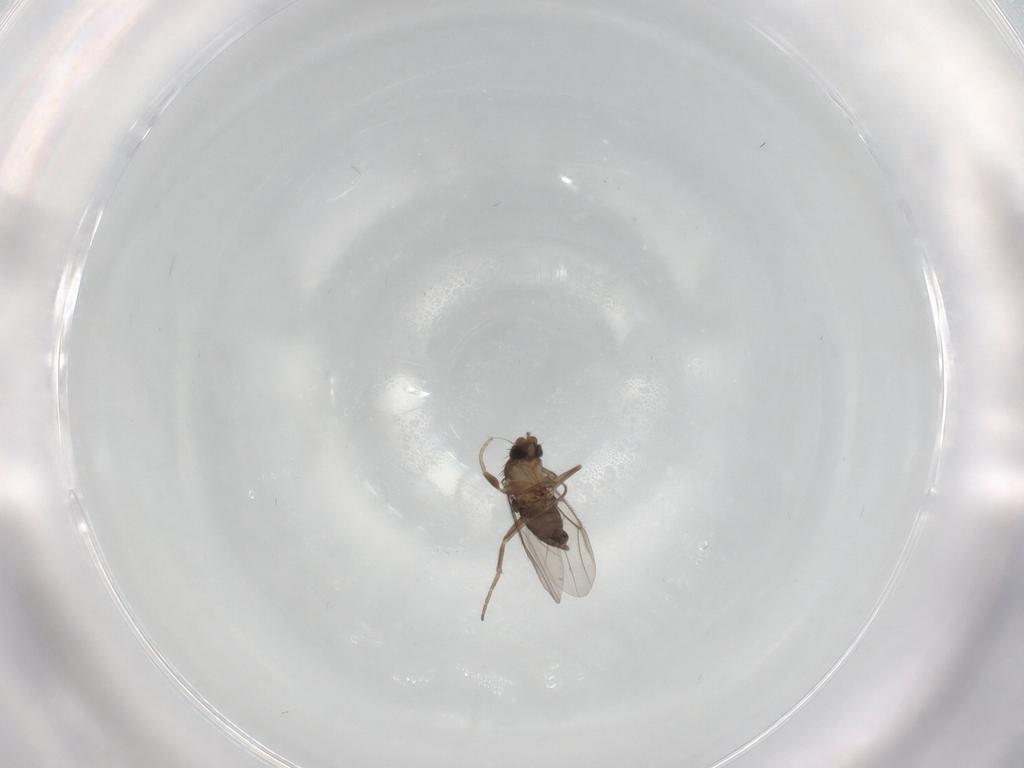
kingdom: Animalia
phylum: Arthropoda
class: Insecta
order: Diptera
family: Phoridae
